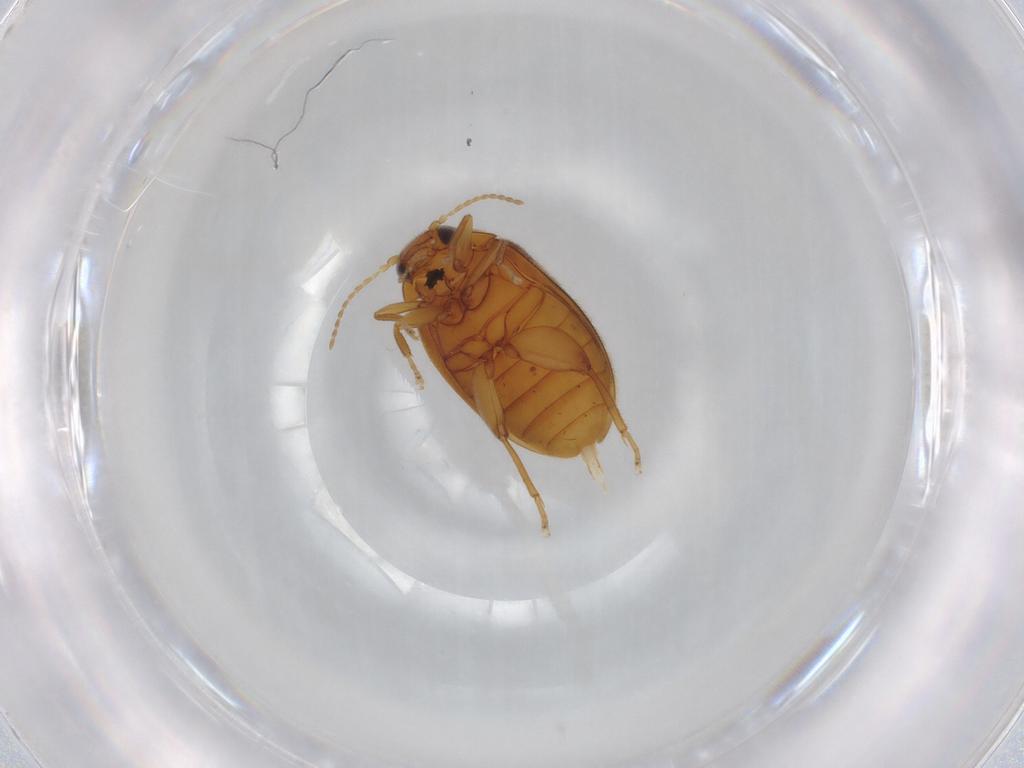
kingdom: Animalia
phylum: Arthropoda
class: Insecta
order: Coleoptera
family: Scirtidae
